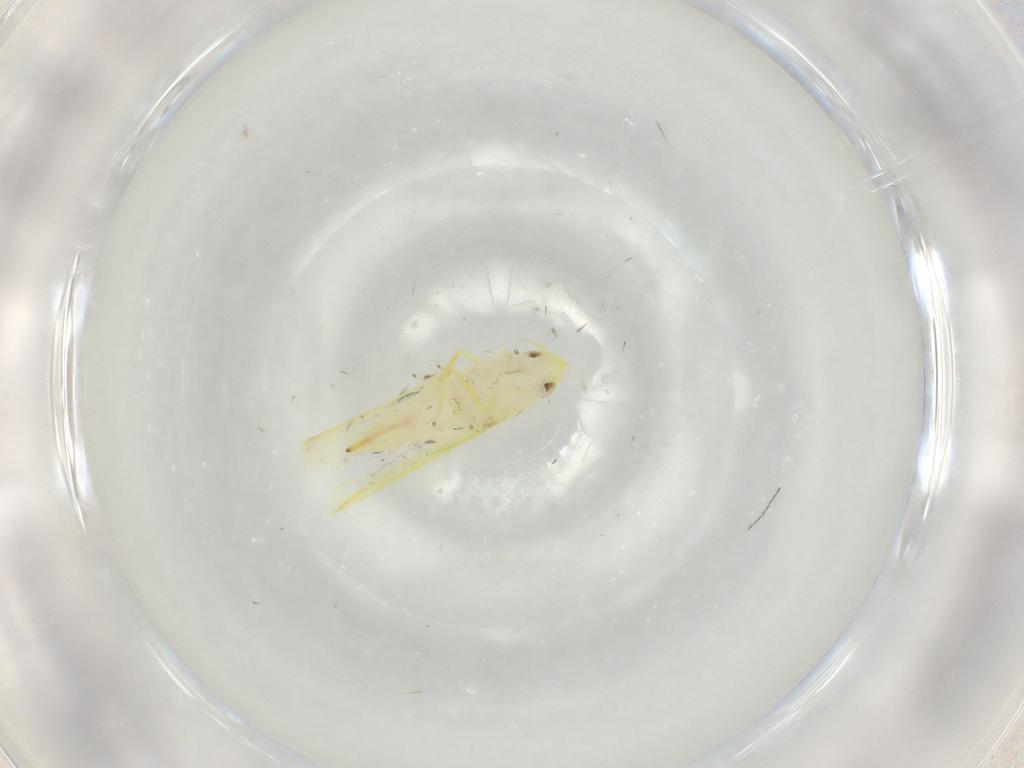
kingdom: Animalia
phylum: Arthropoda
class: Insecta
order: Hemiptera
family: Cicadellidae
